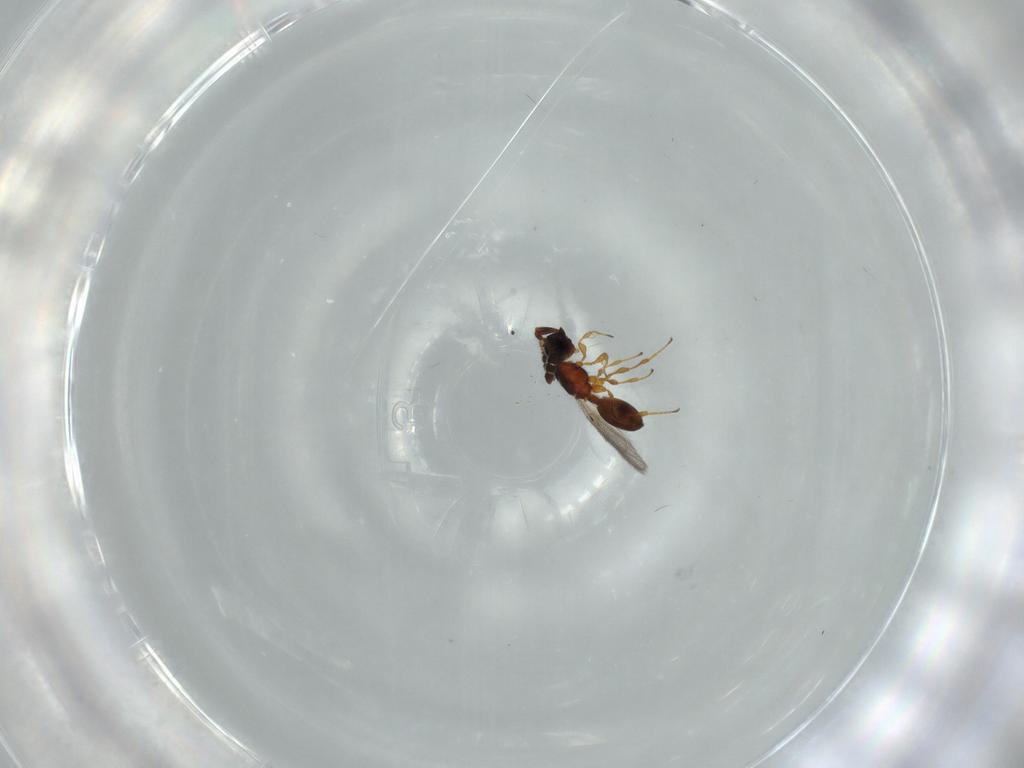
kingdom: Animalia
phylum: Arthropoda
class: Insecta
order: Hymenoptera
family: Diapriidae
